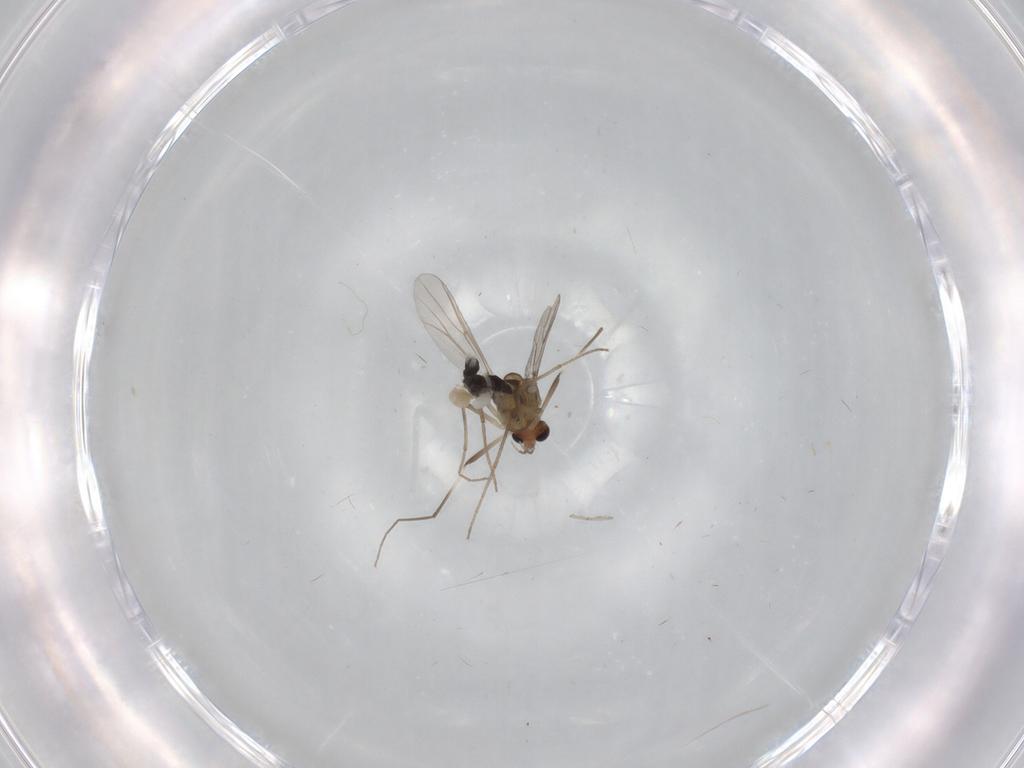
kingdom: Animalia
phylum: Arthropoda
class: Insecta
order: Diptera
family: Chironomidae
